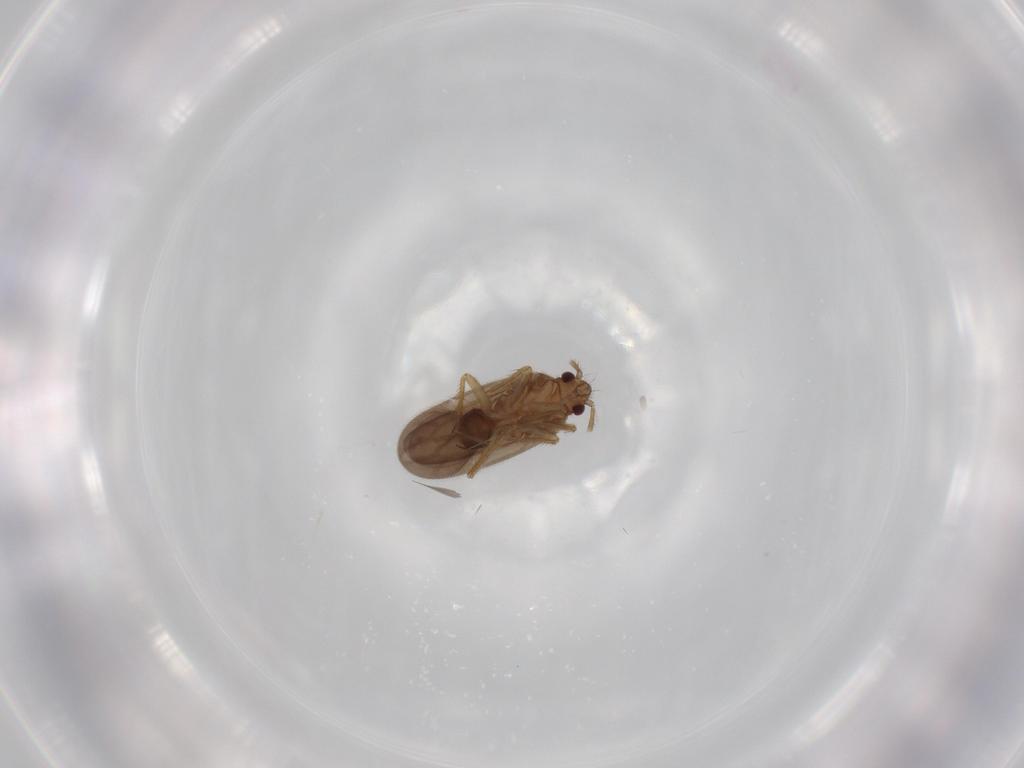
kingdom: Animalia
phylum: Arthropoda
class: Insecta
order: Hemiptera
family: Ceratocombidae
